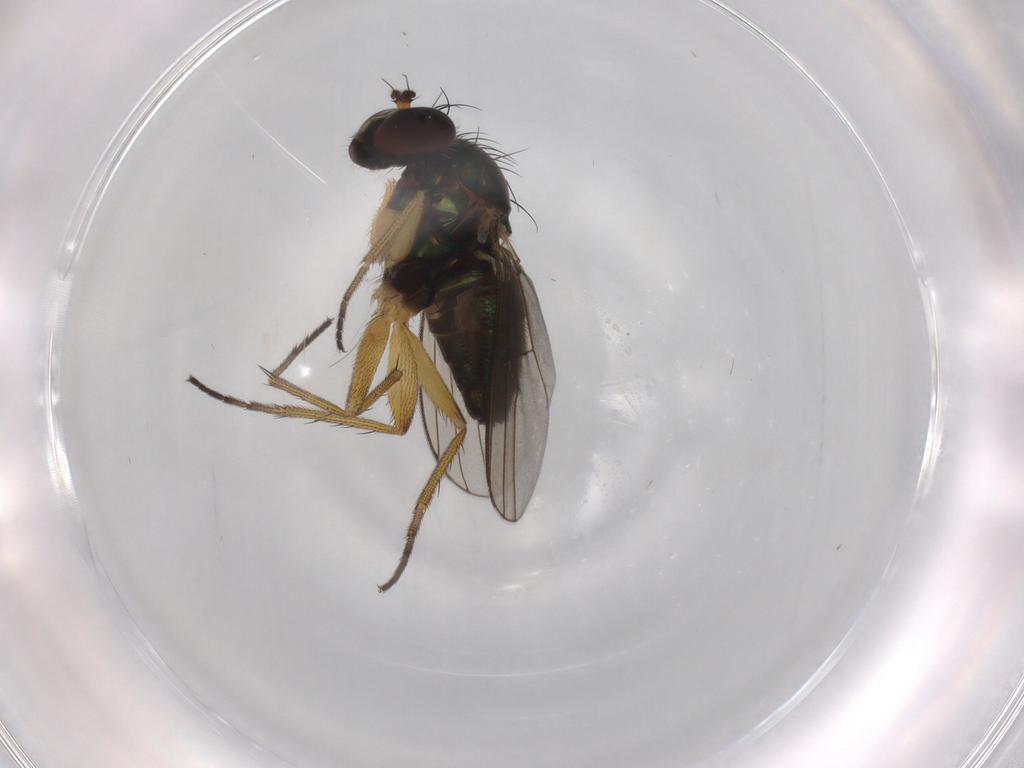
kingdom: Animalia
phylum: Arthropoda
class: Insecta
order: Diptera
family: Dolichopodidae
